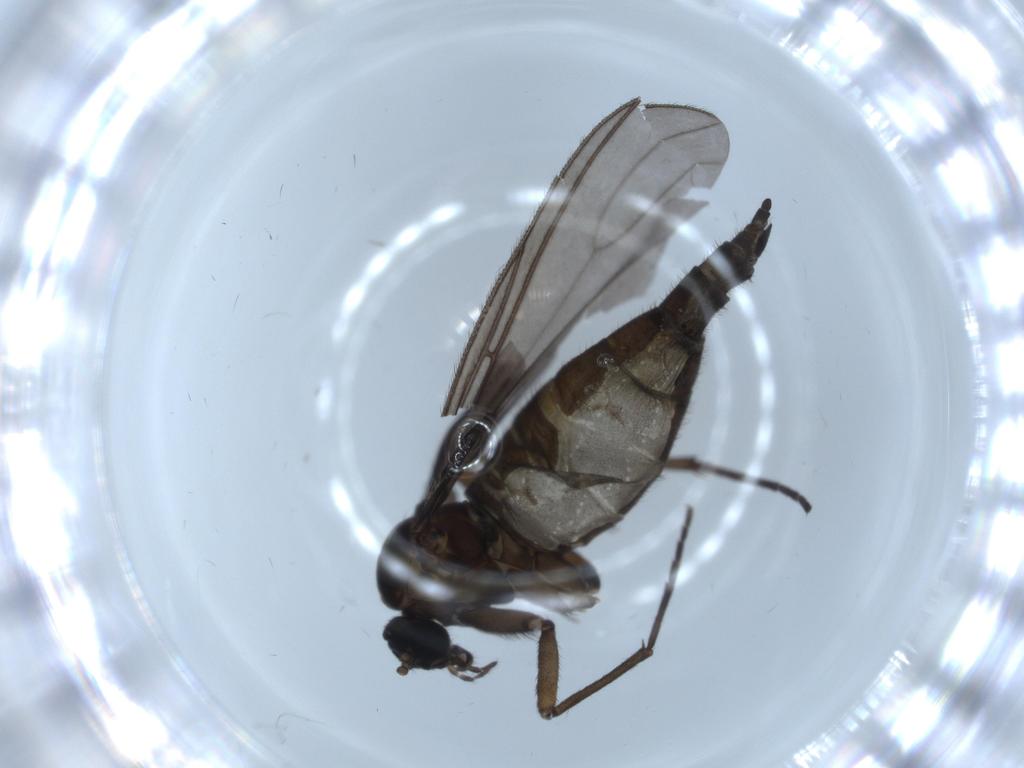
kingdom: Animalia
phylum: Arthropoda
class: Insecta
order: Diptera
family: Sciaridae
